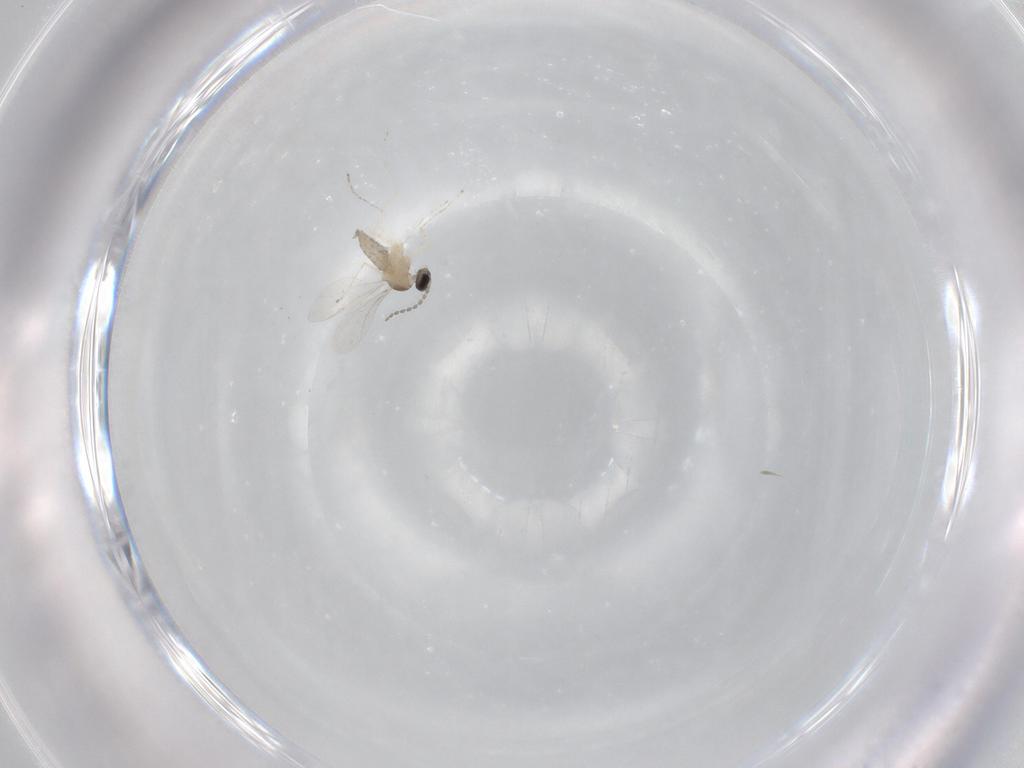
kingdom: Animalia
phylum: Arthropoda
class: Insecta
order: Diptera
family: Cecidomyiidae
